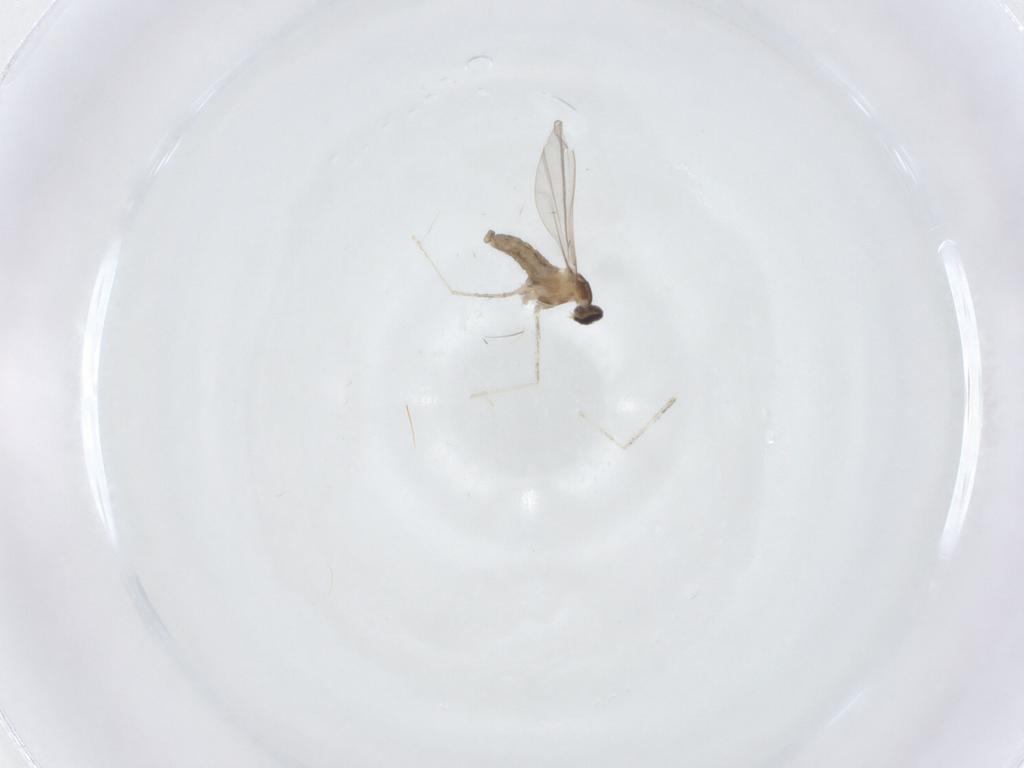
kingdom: Animalia
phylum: Arthropoda
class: Insecta
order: Diptera
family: Cecidomyiidae
